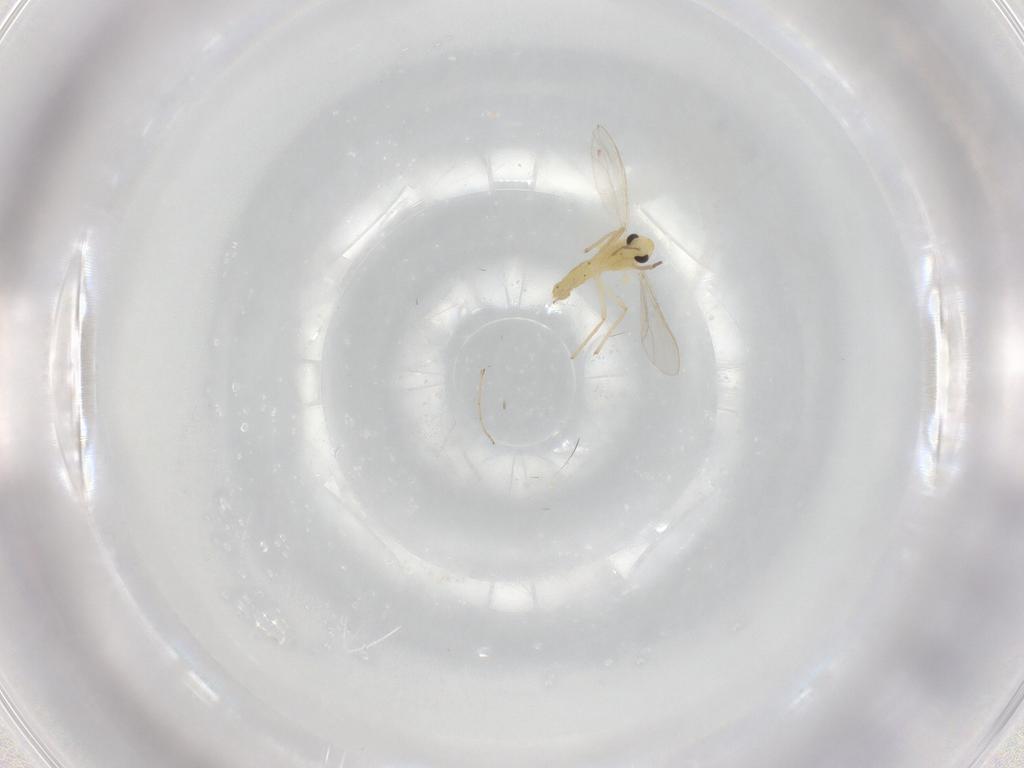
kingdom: Animalia
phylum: Arthropoda
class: Insecta
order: Diptera
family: Chironomidae
